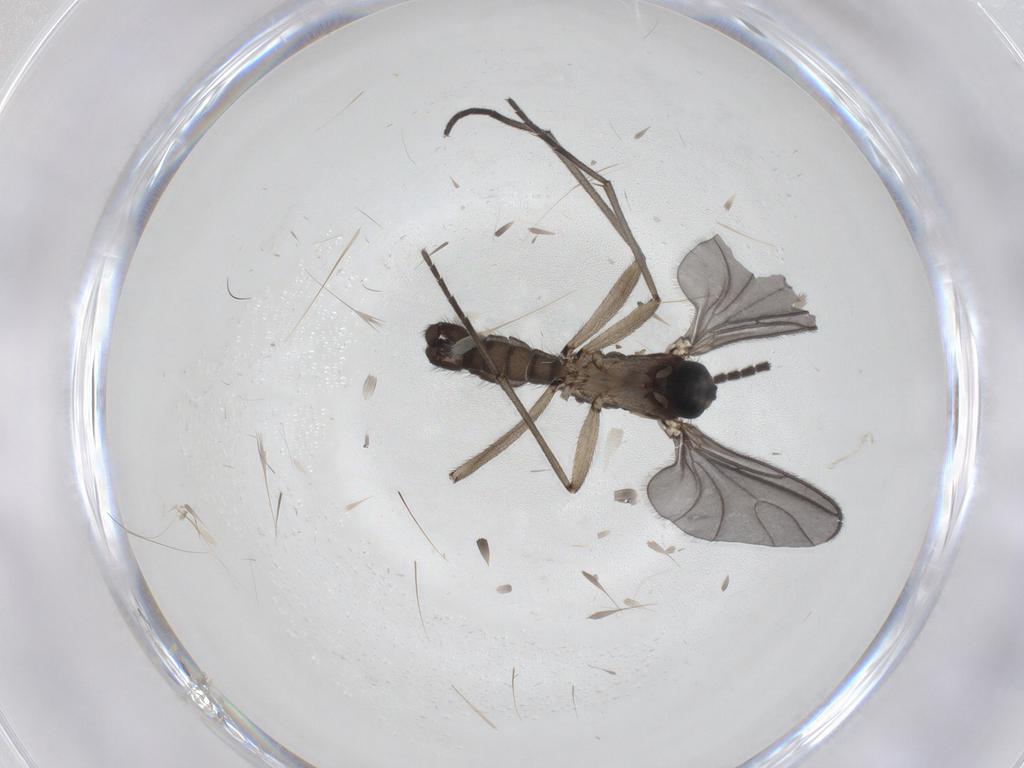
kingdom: Animalia
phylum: Arthropoda
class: Insecta
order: Diptera
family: Sciaridae
